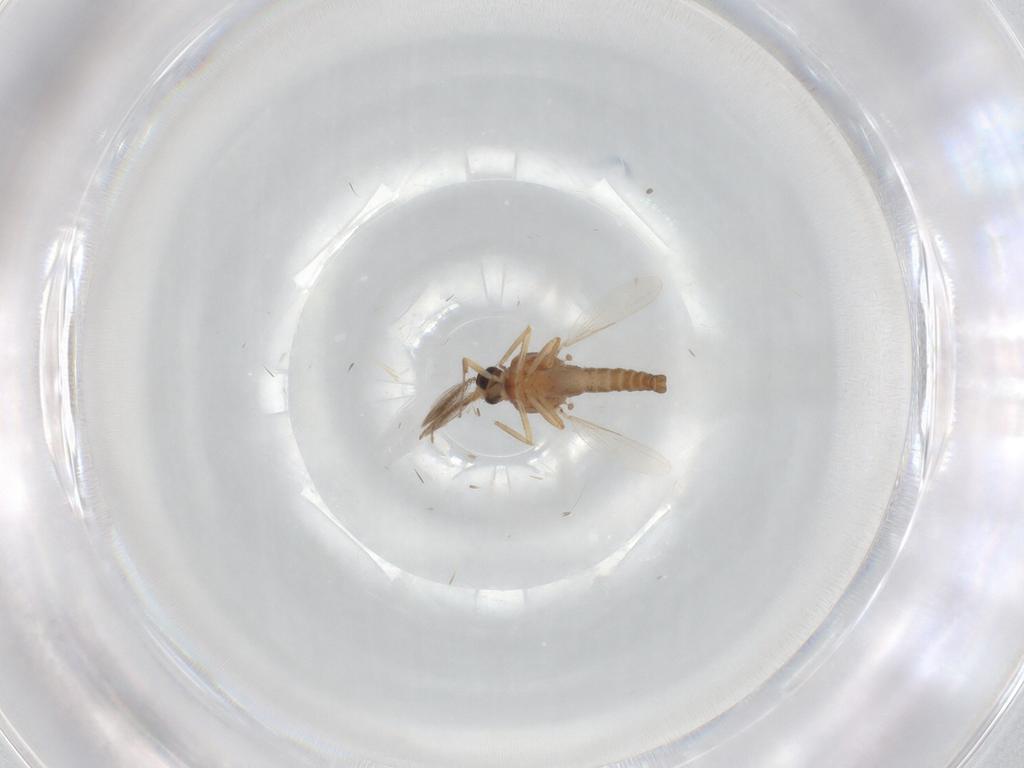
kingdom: Animalia
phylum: Arthropoda
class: Insecta
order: Diptera
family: Ceratopogonidae
